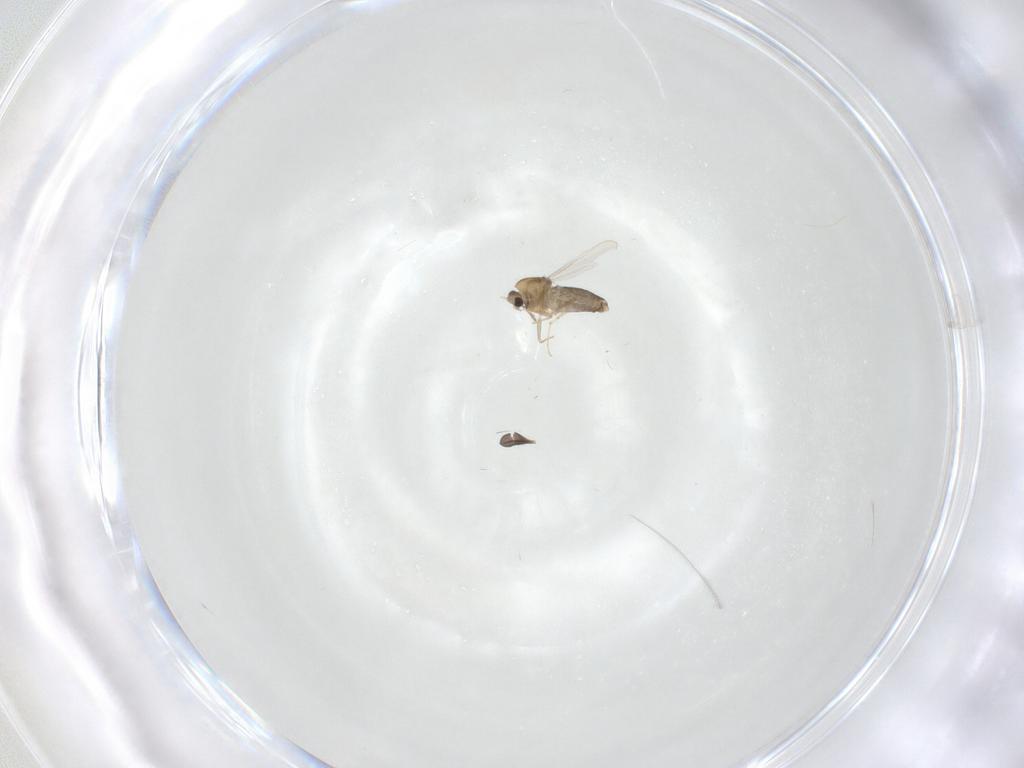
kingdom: Animalia
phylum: Arthropoda
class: Insecta
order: Diptera
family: Chironomidae
